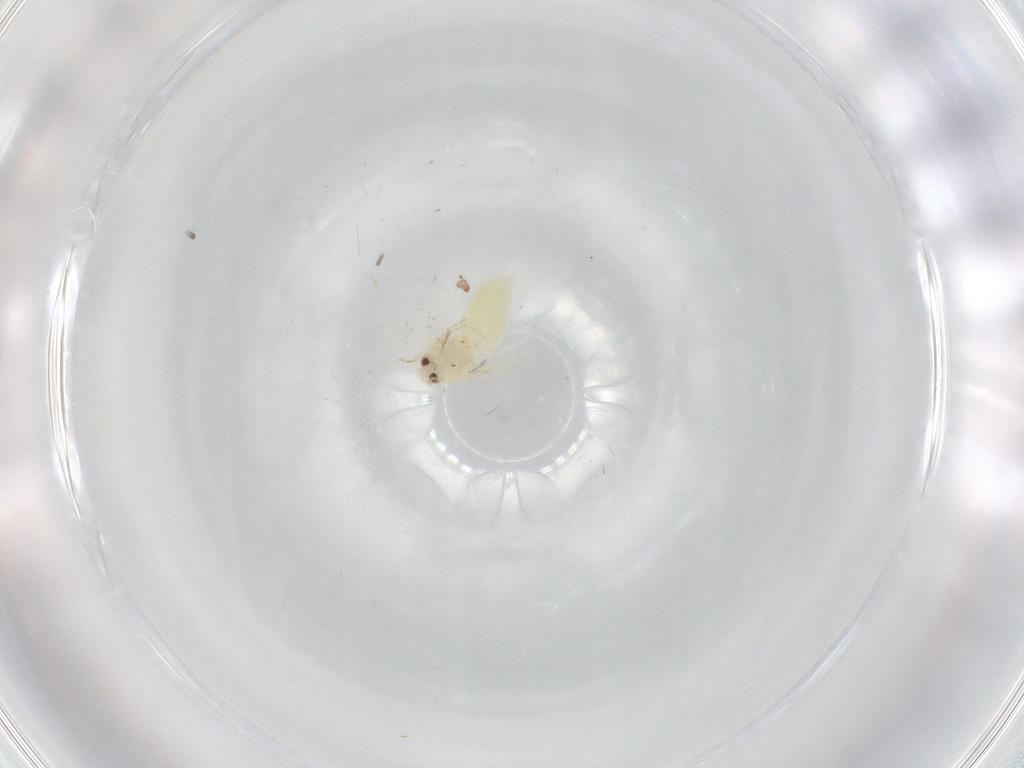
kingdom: Animalia
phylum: Arthropoda
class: Insecta
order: Hemiptera
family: Aleyrodidae
